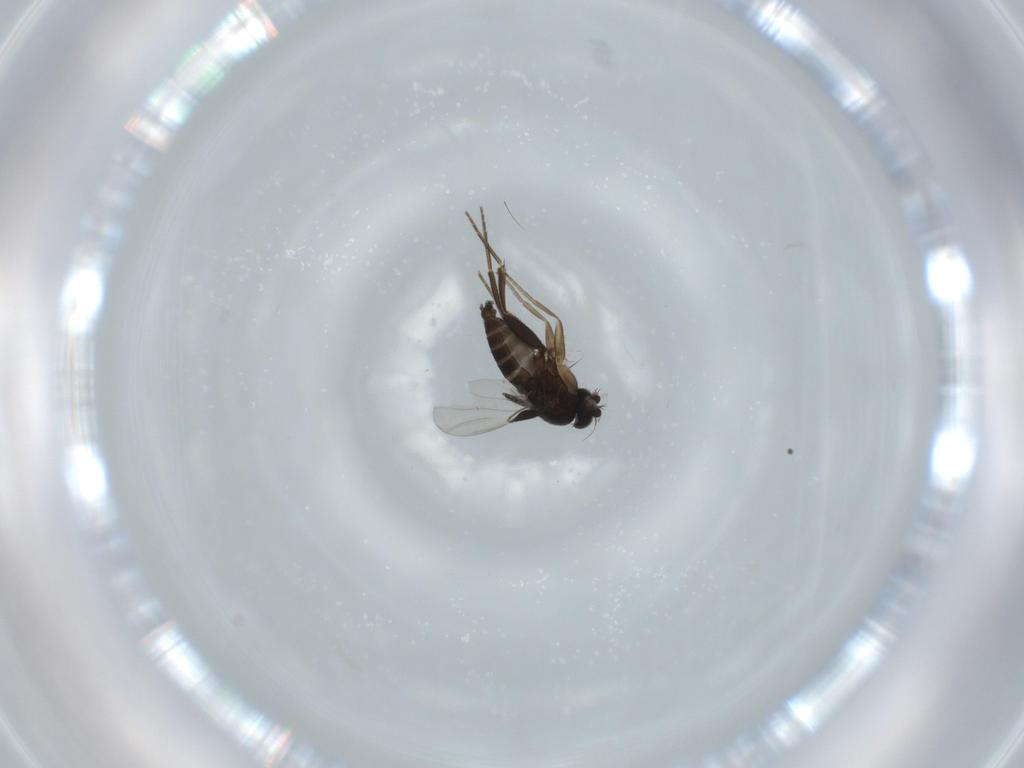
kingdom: Animalia
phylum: Arthropoda
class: Insecta
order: Diptera
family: Phoridae
